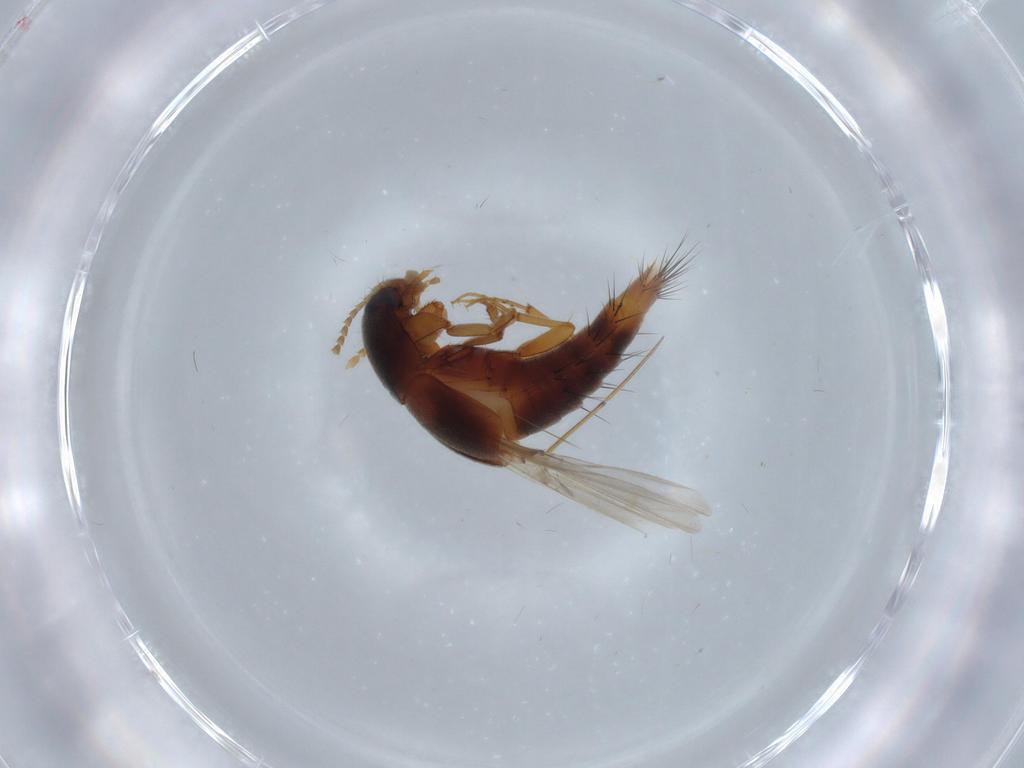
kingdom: Animalia
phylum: Arthropoda
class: Insecta
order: Coleoptera
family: Staphylinidae
